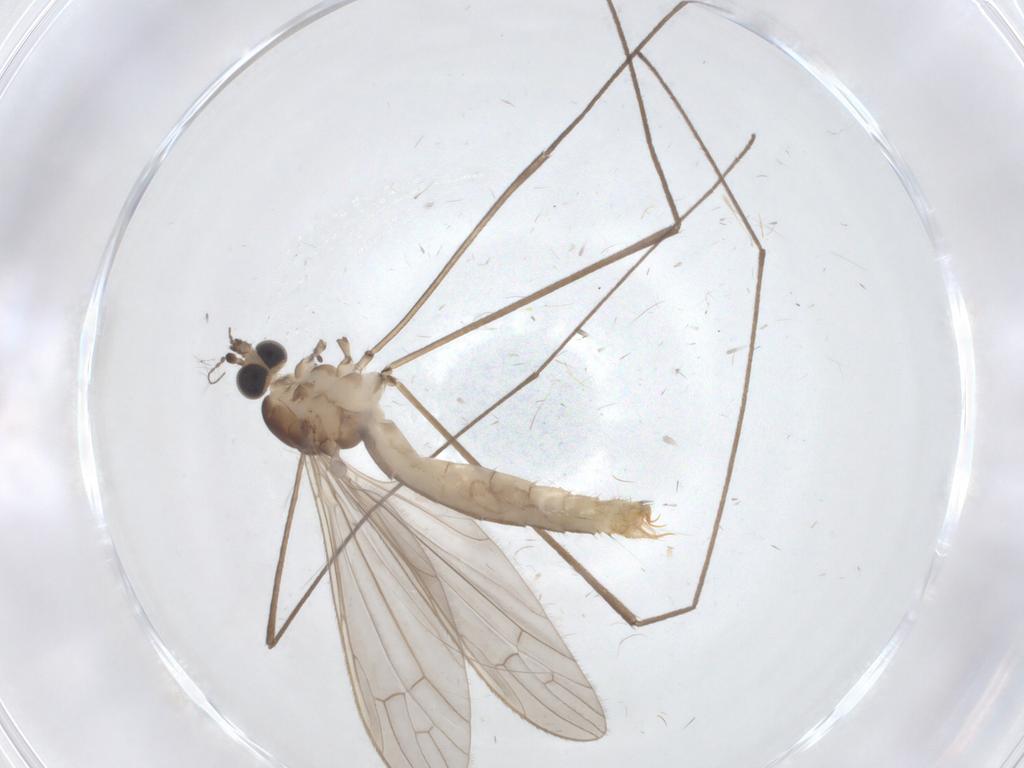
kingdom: Animalia
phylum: Arthropoda
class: Insecta
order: Diptera
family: Limoniidae
